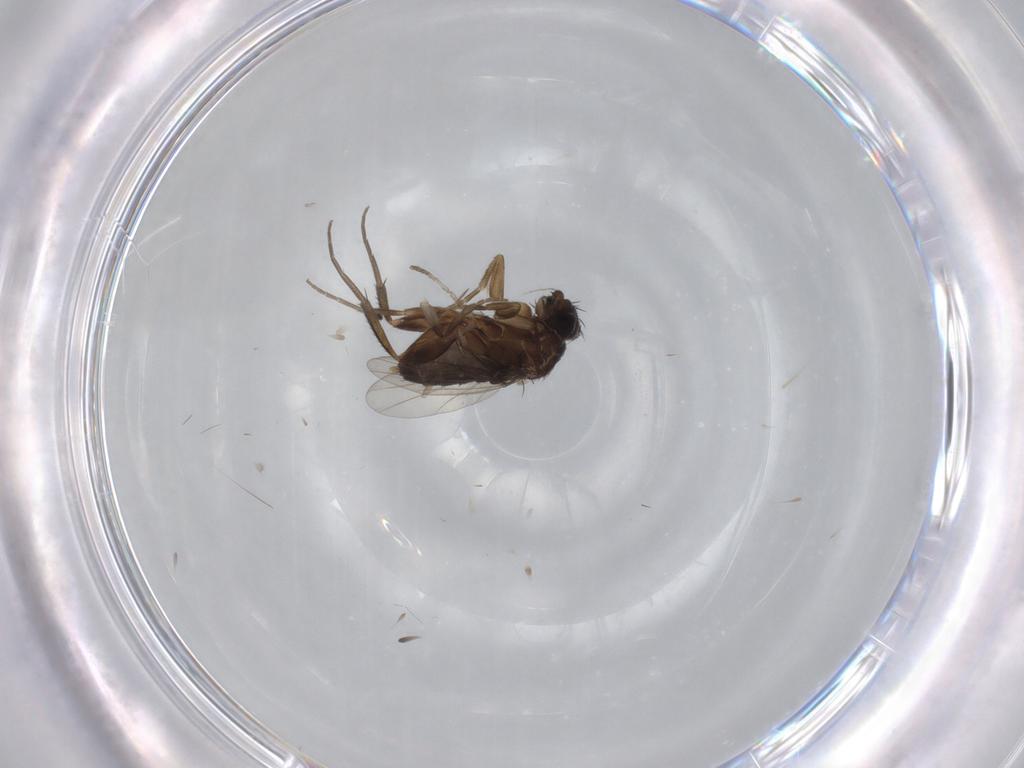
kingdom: Animalia
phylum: Arthropoda
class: Insecta
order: Diptera
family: Phoridae
